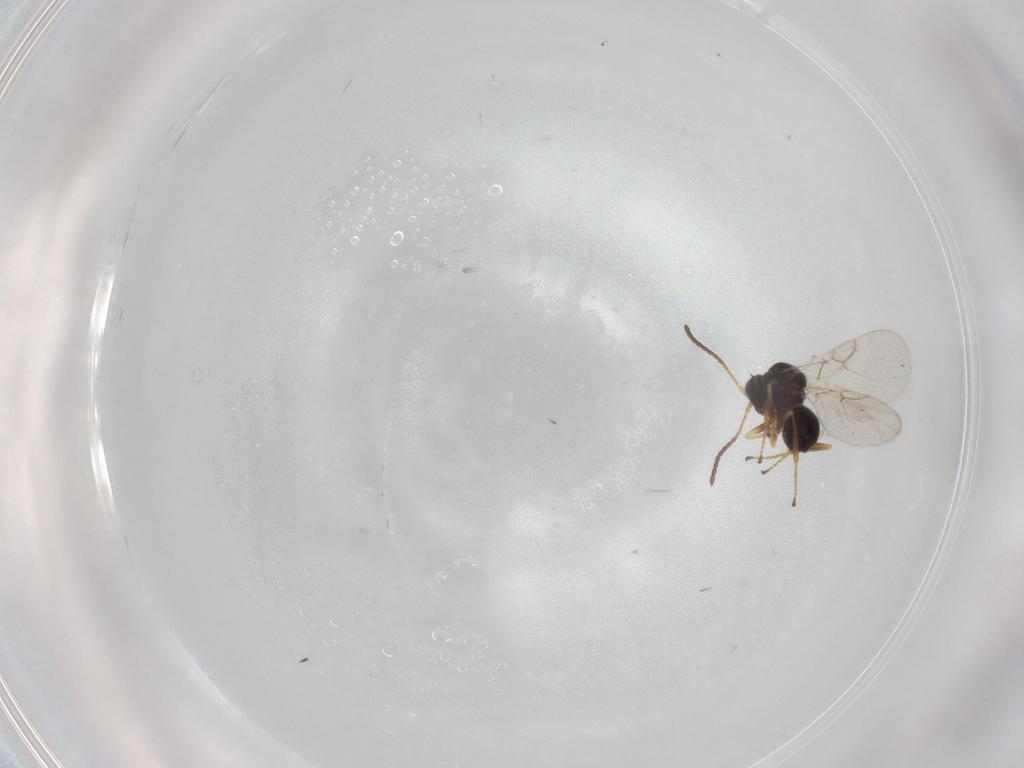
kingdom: Animalia
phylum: Arthropoda
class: Insecta
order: Hymenoptera
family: Figitidae
